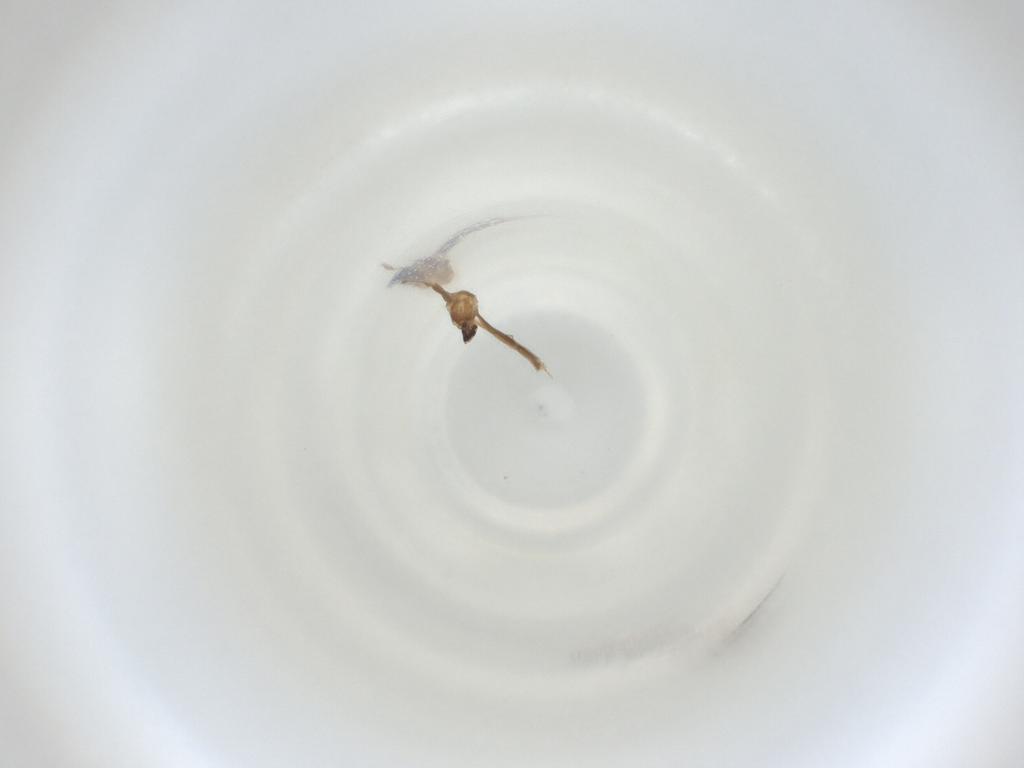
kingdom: Animalia
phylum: Arthropoda
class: Insecta
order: Diptera
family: Cecidomyiidae
